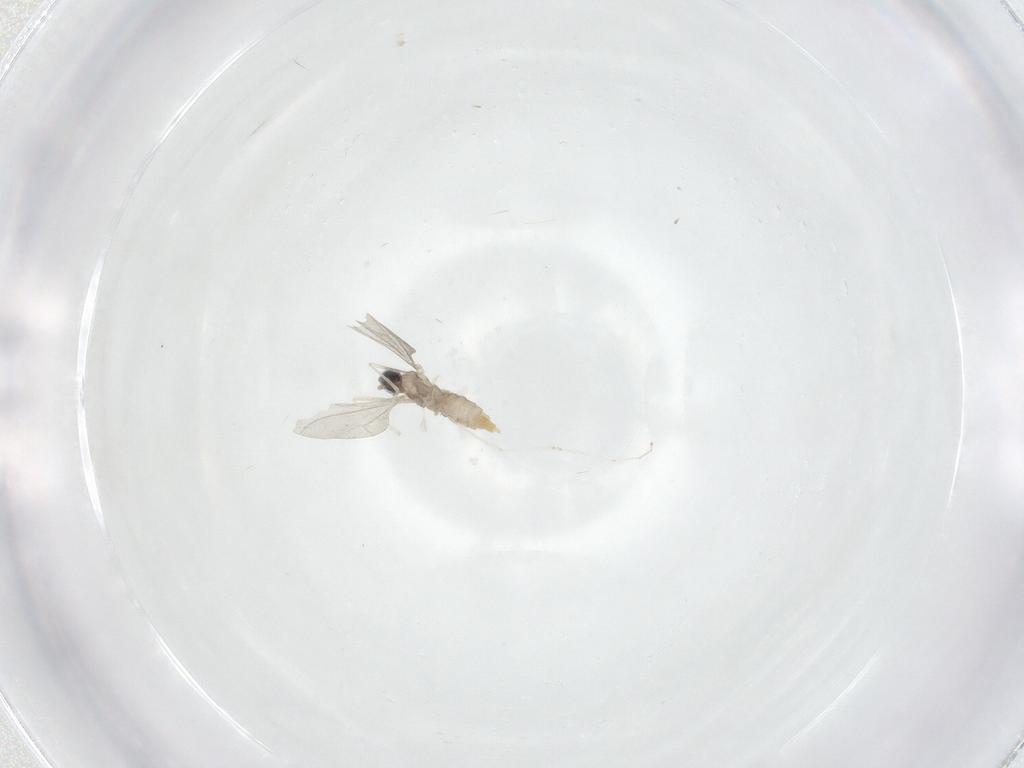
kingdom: Animalia
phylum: Arthropoda
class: Insecta
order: Diptera
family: Cecidomyiidae
